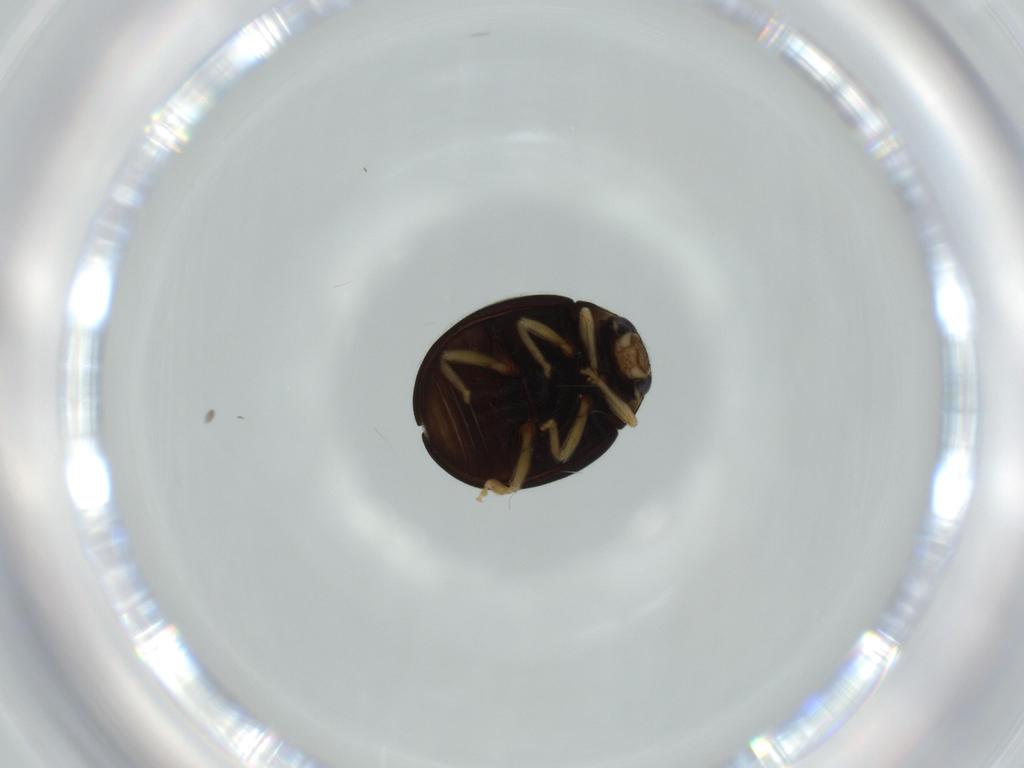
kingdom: Animalia
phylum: Arthropoda
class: Insecta
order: Coleoptera
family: Coccinellidae
